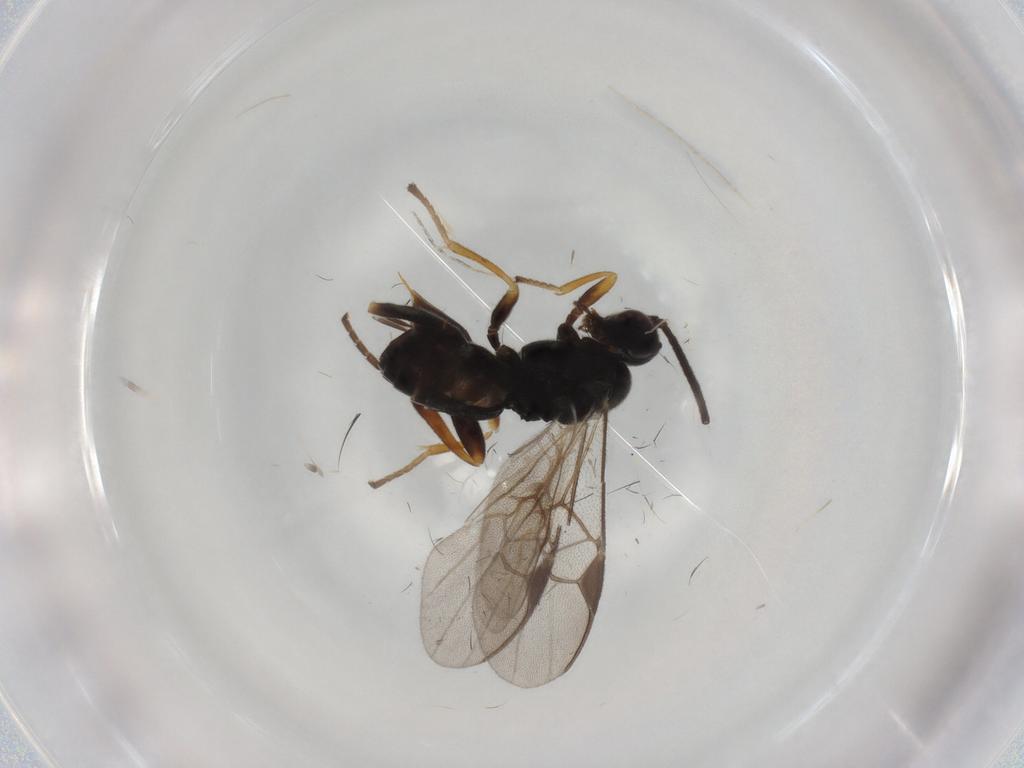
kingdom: Animalia
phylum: Arthropoda
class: Insecta
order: Hymenoptera
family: Braconidae
